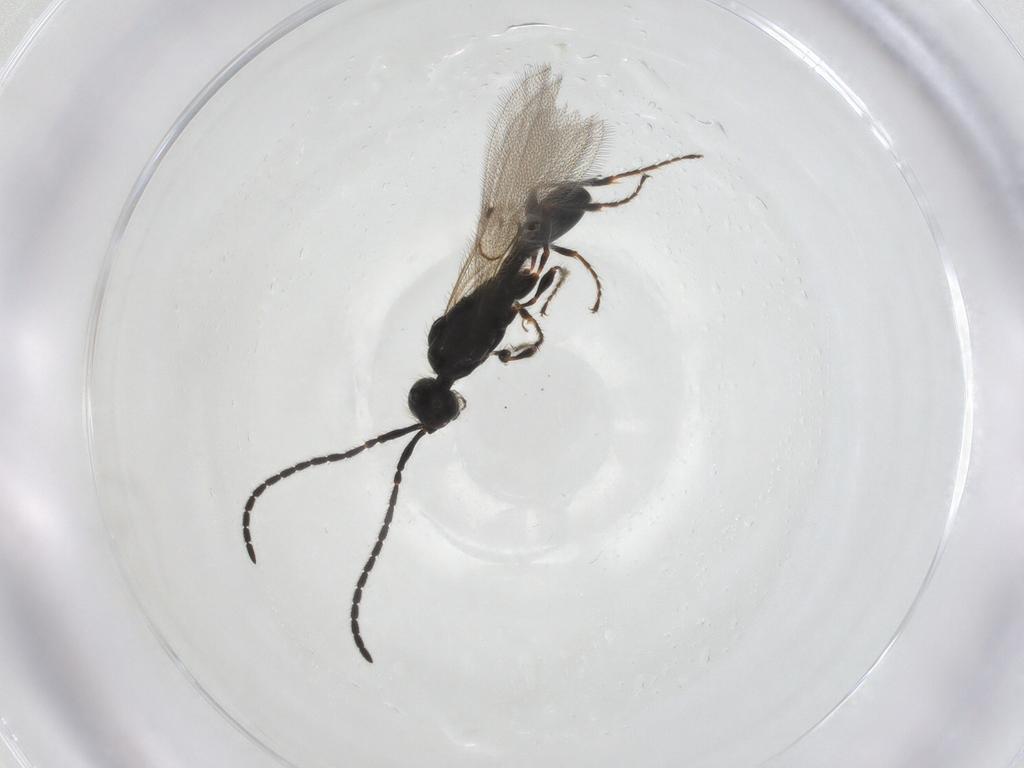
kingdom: Animalia
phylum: Arthropoda
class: Insecta
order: Hymenoptera
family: Diapriidae
